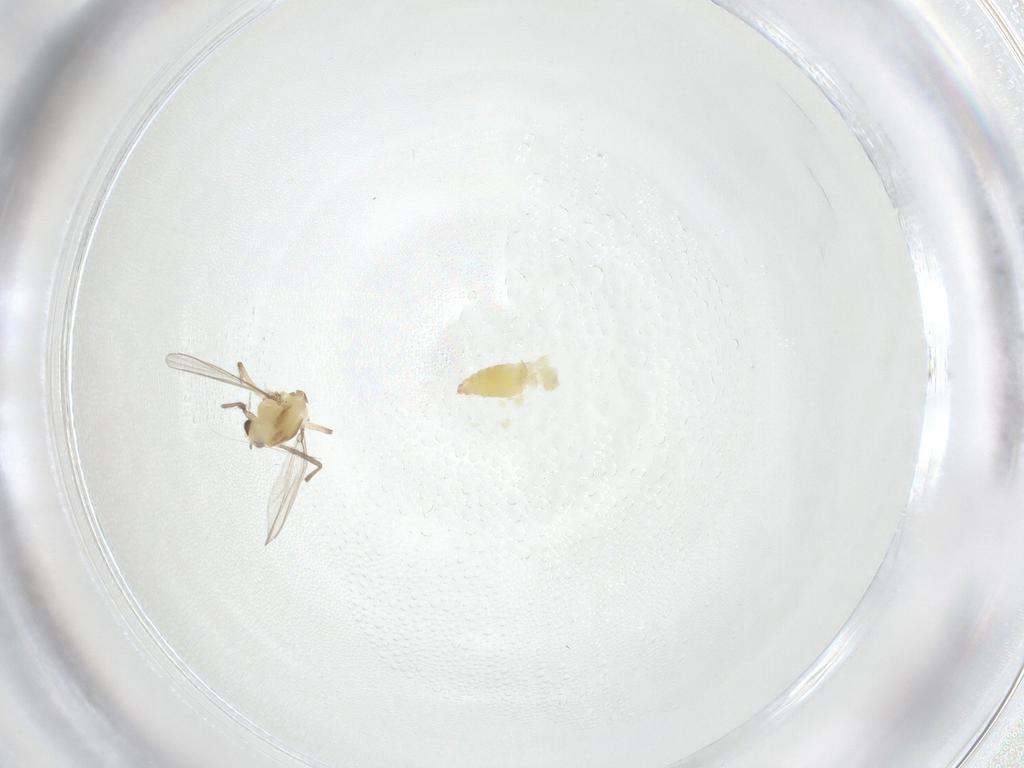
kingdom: Animalia
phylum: Arthropoda
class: Insecta
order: Diptera
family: Chironomidae
